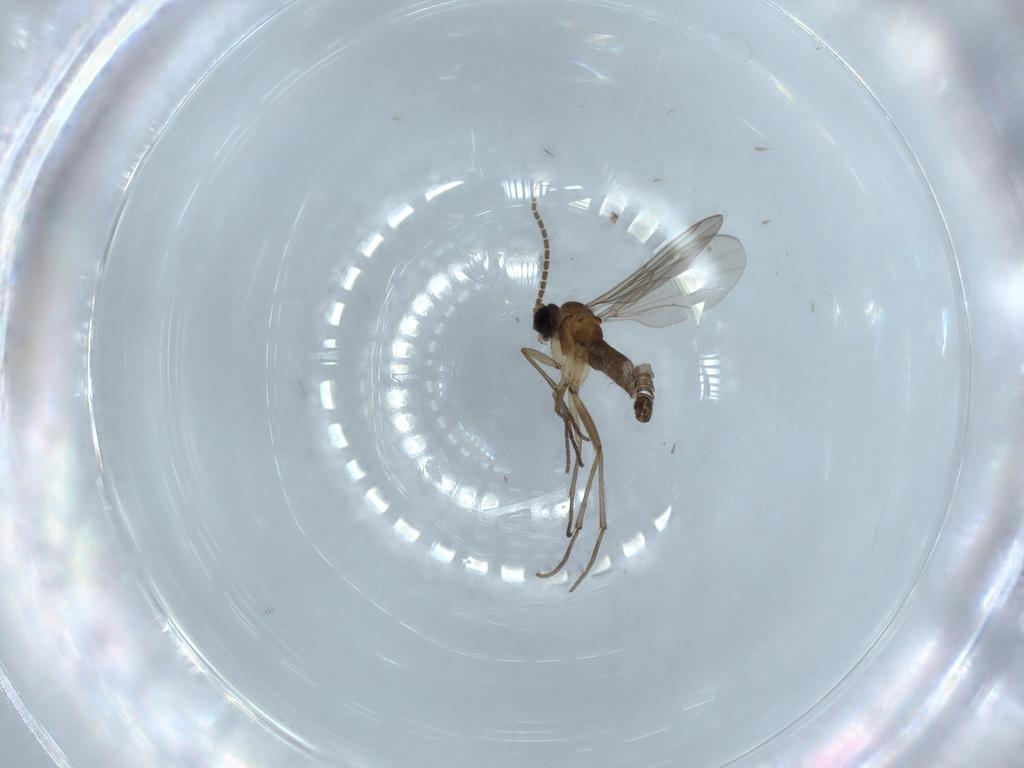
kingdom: Animalia
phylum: Arthropoda
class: Insecta
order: Diptera
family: Sciaridae
